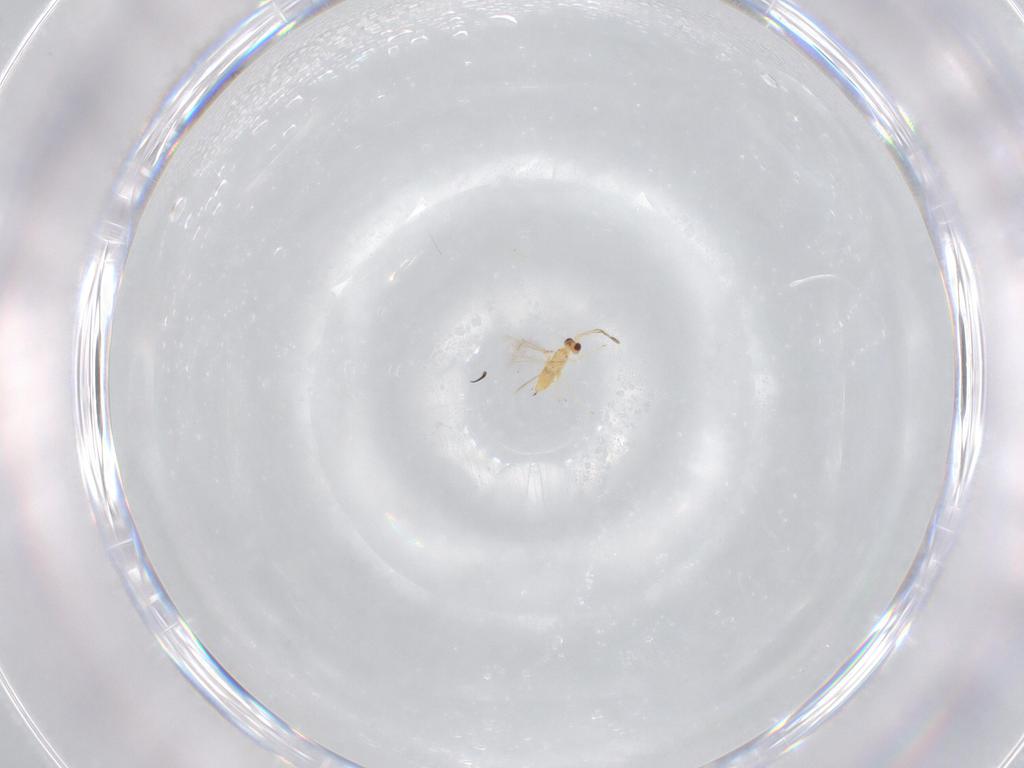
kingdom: Animalia
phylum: Arthropoda
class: Insecta
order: Hymenoptera
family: Mymaridae
